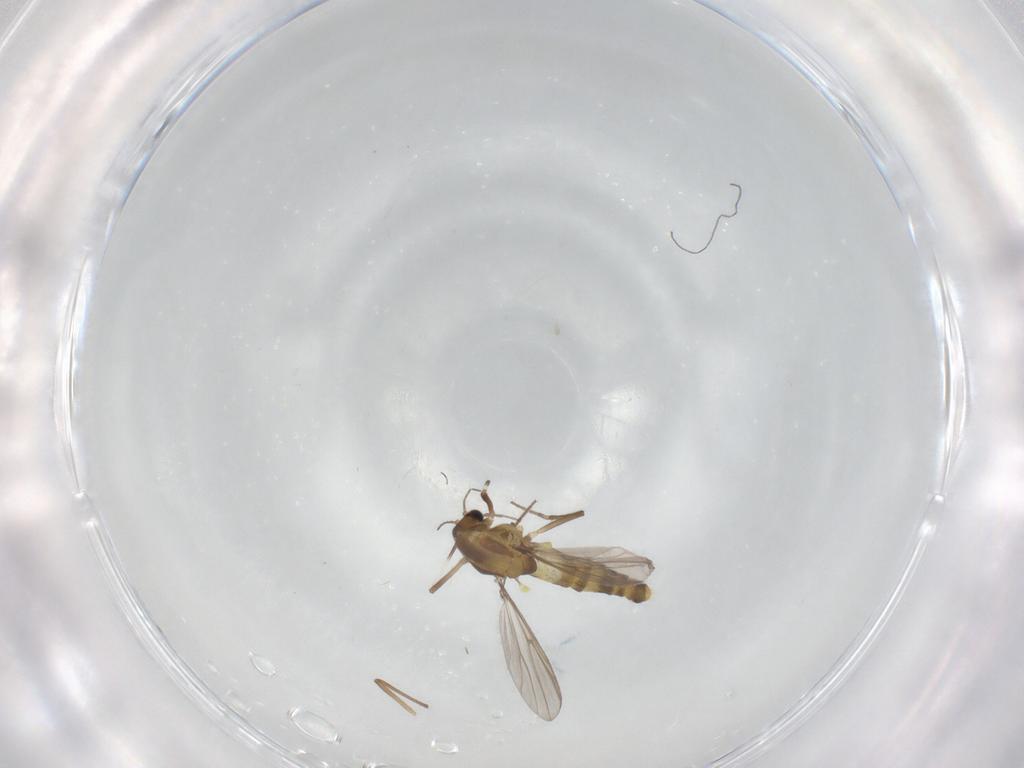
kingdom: Animalia
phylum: Arthropoda
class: Insecta
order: Diptera
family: Chironomidae
